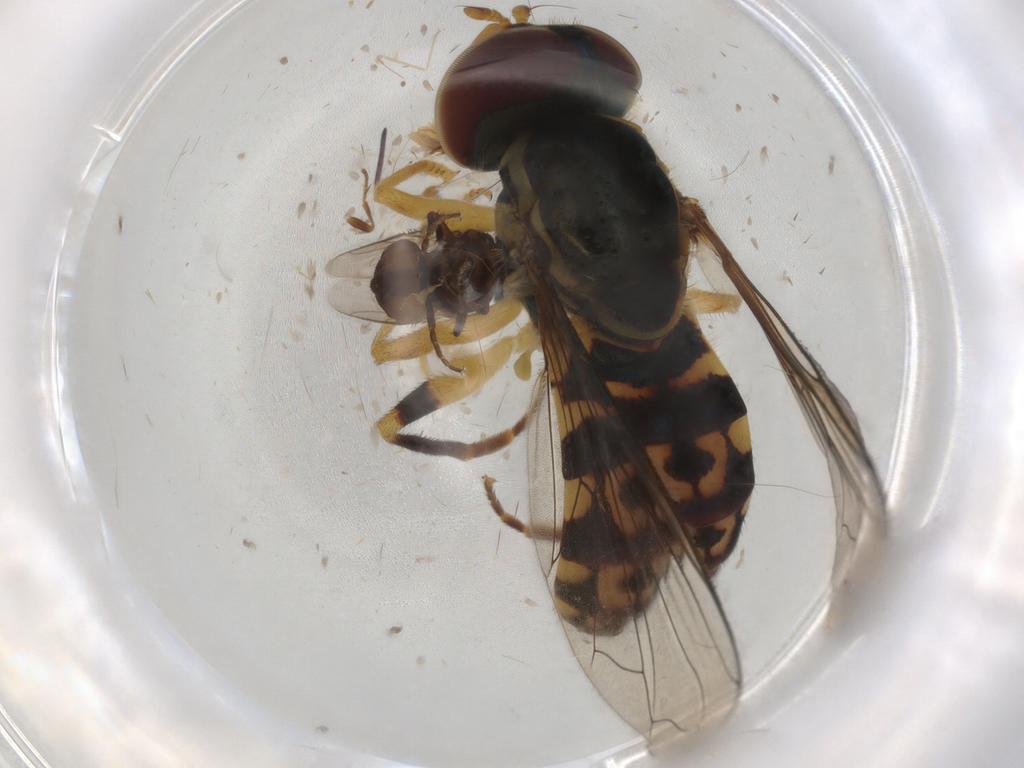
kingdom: Animalia
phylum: Arthropoda
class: Insecta
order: Diptera
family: Sphaeroceridae
